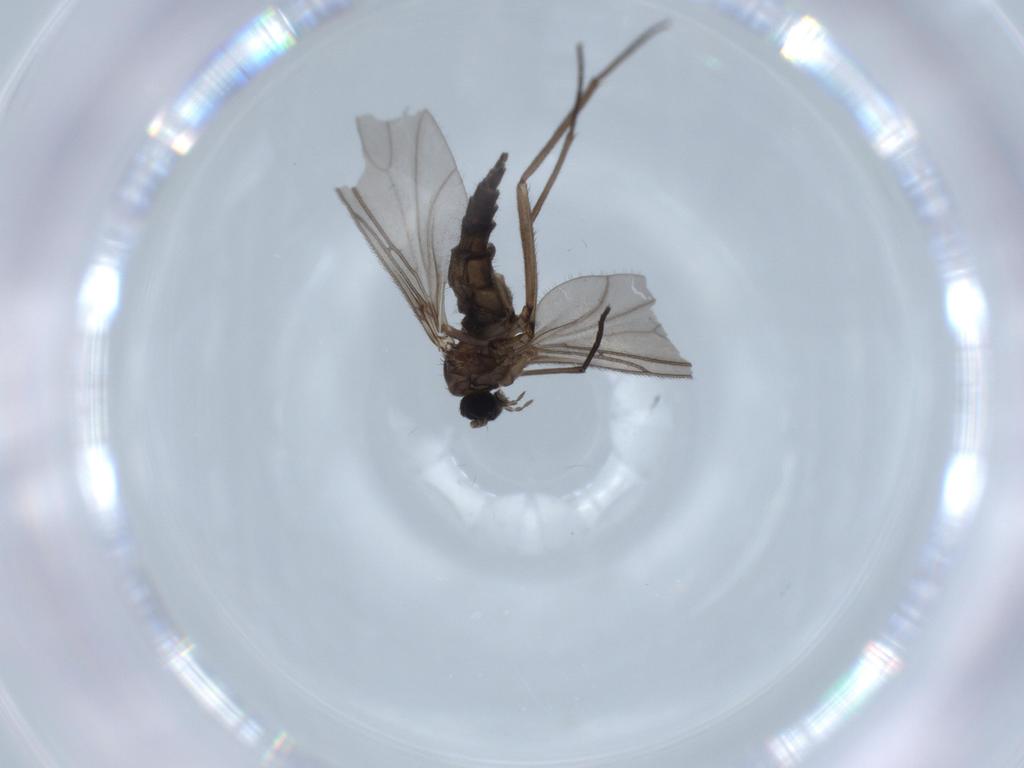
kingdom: Animalia
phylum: Arthropoda
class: Insecta
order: Diptera
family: Sciaridae
